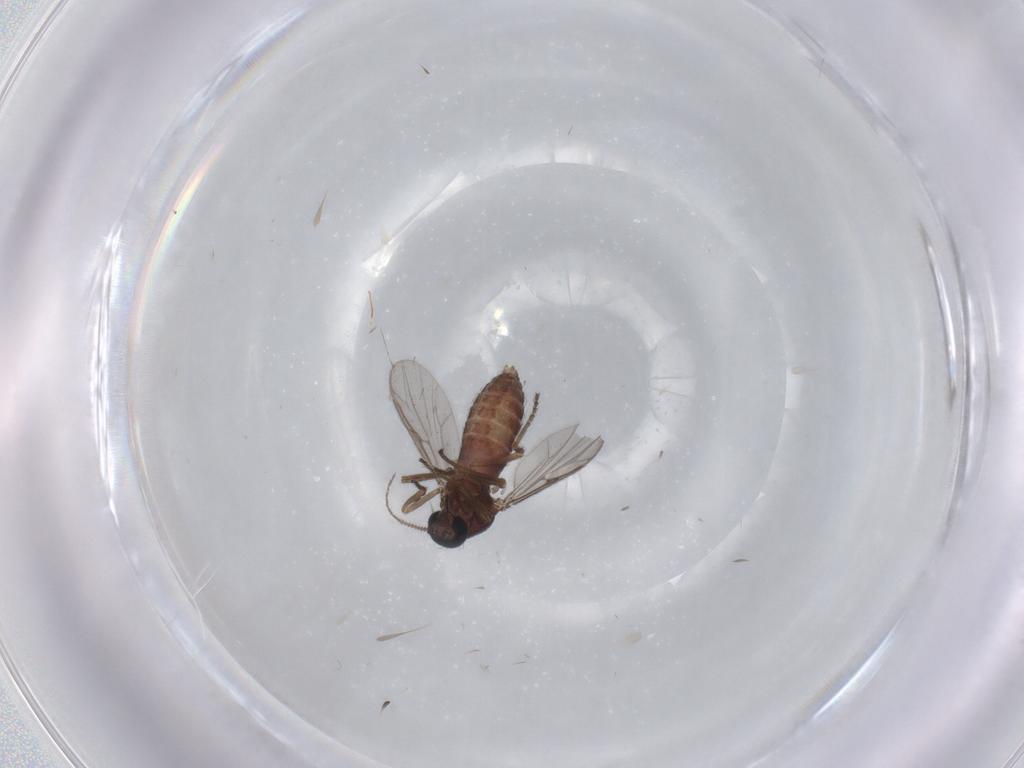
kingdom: Animalia
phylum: Arthropoda
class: Insecta
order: Diptera
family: Ceratopogonidae
